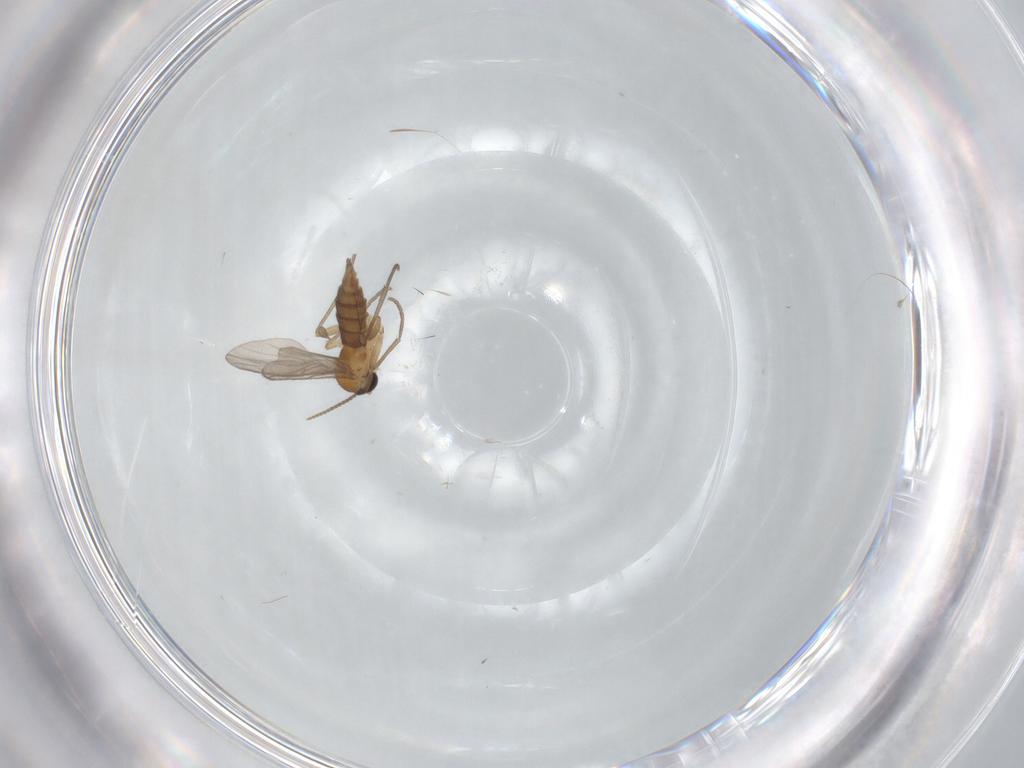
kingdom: Animalia
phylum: Arthropoda
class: Insecta
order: Diptera
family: Sciaridae
